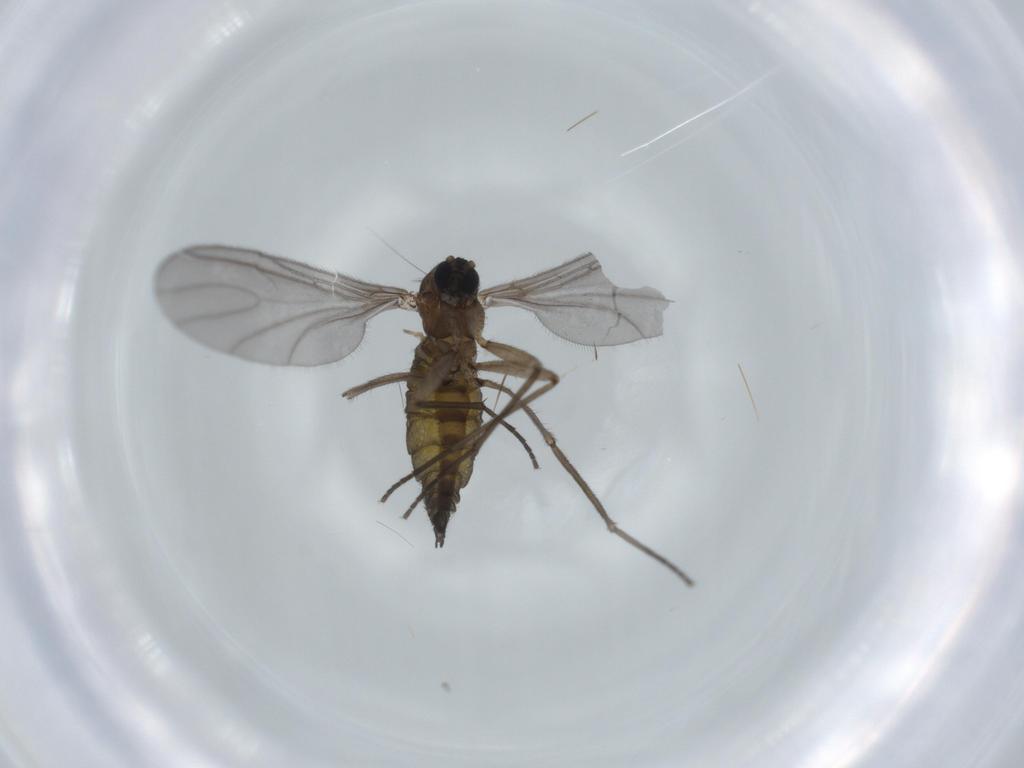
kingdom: Animalia
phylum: Arthropoda
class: Insecta
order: Diptera
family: Sciaridae
